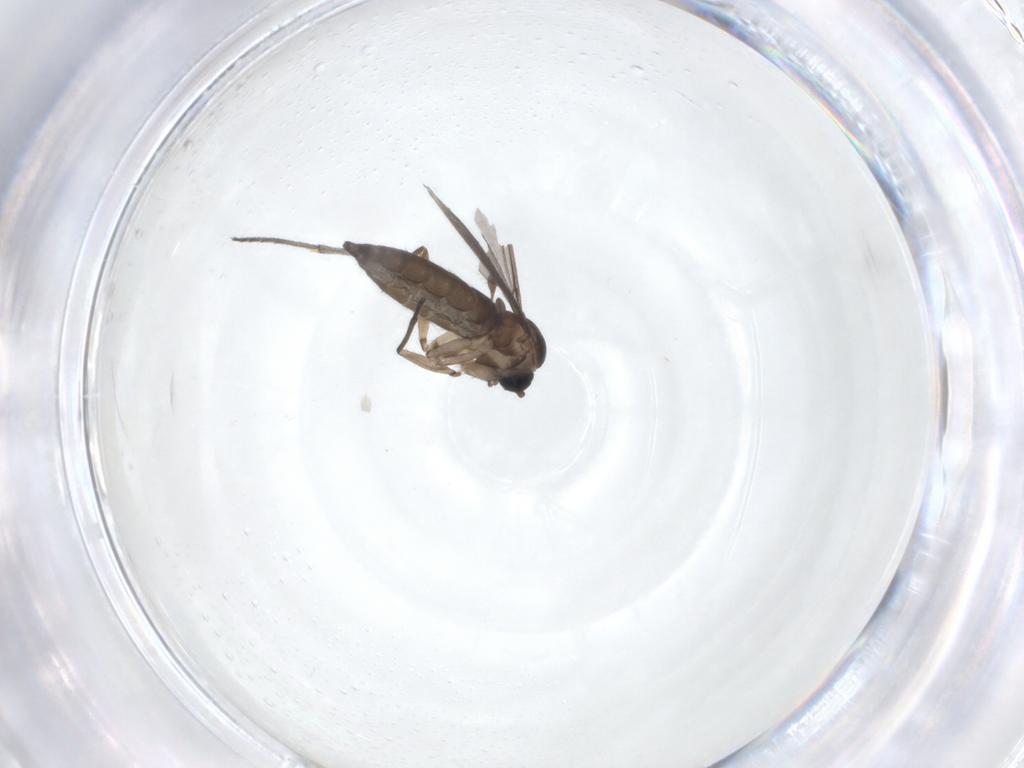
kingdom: Animalia
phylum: Arthropoda
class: Insecta
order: Diptera
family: Sciaridae
